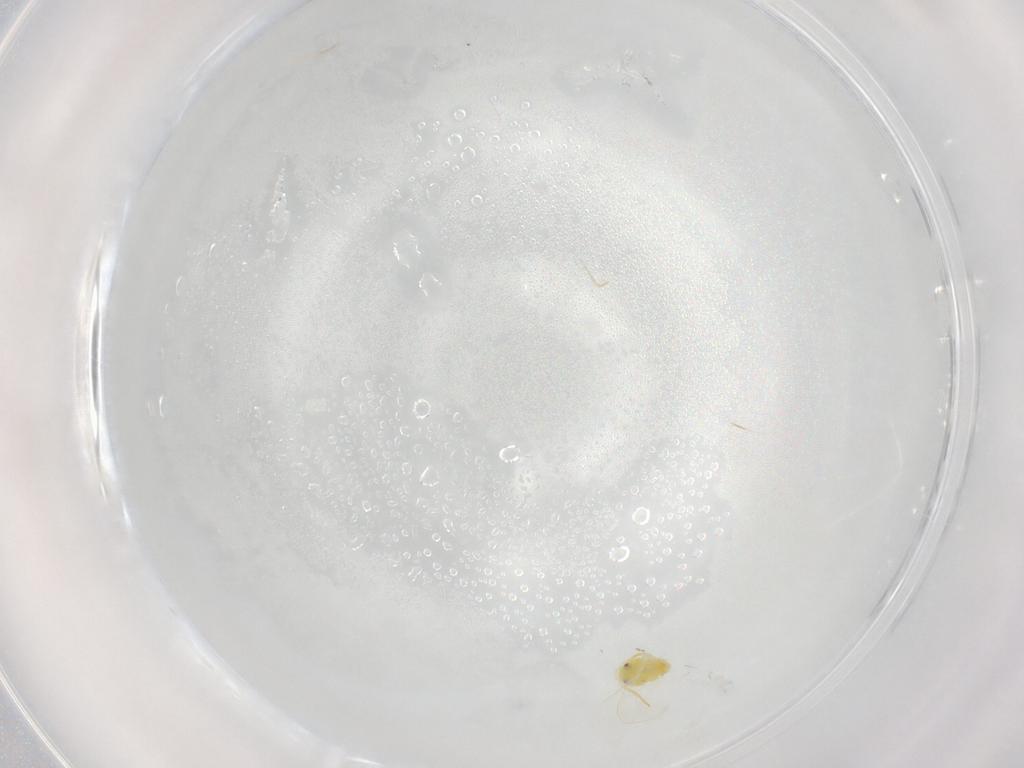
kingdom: Animalia
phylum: Arthropoda
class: Insecta
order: Hemiptera
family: Aleyrodidae
